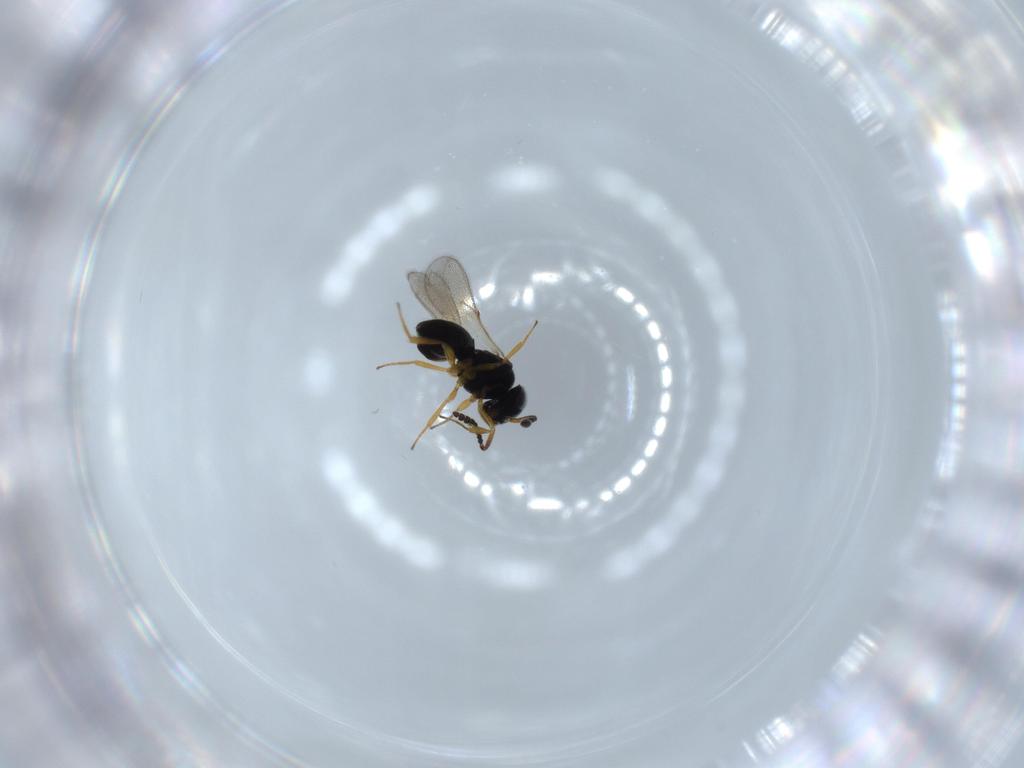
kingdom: Animalia
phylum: Arthropoda
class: Insecta
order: Hymenoptera
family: Scelionidae
